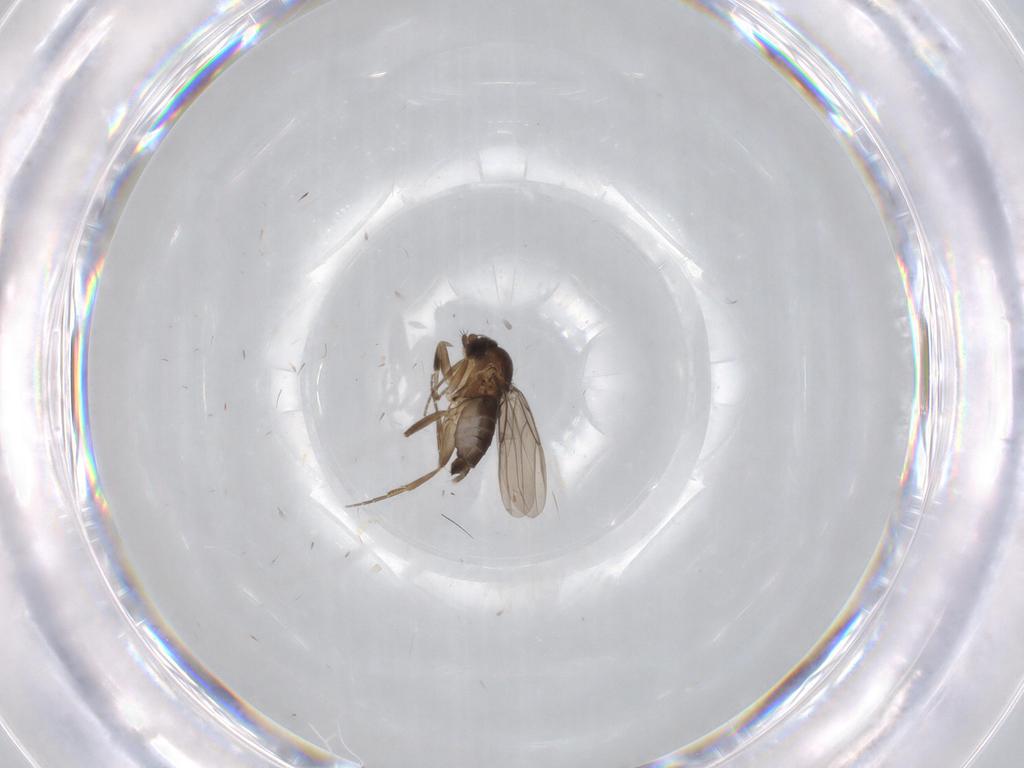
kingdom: Animalia
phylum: Arthropoda
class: Insecta
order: Diptera
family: Phoridae
